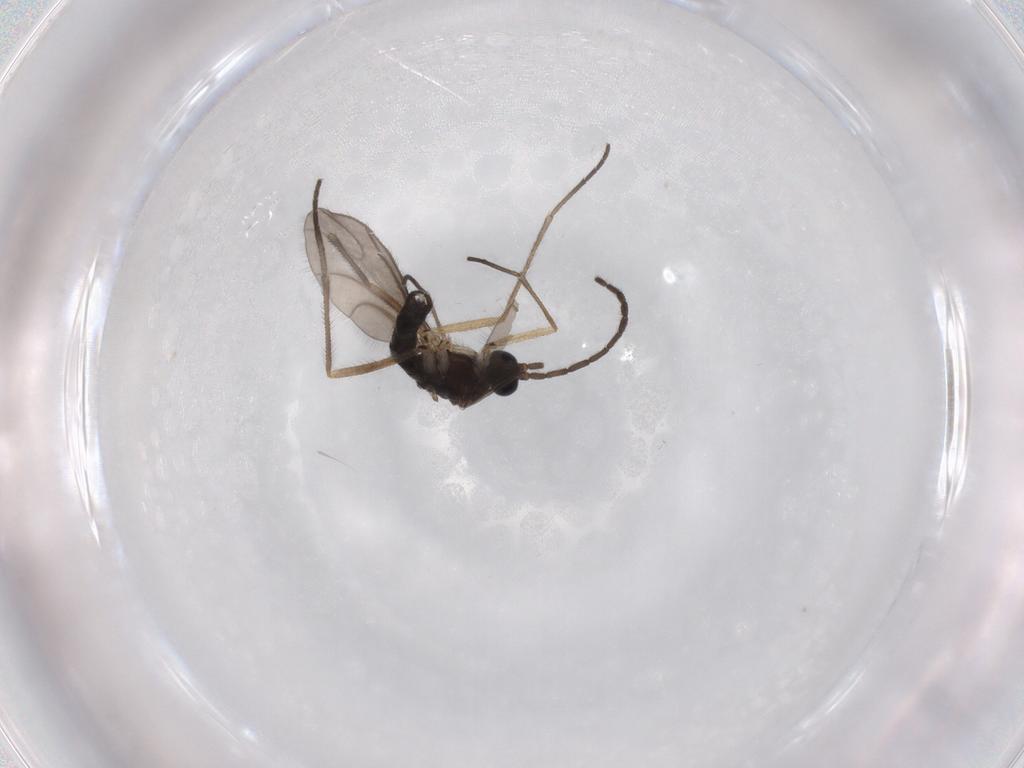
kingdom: Animalia
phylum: Arthropoda
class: Insecta
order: Diptera
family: Sciaridae
